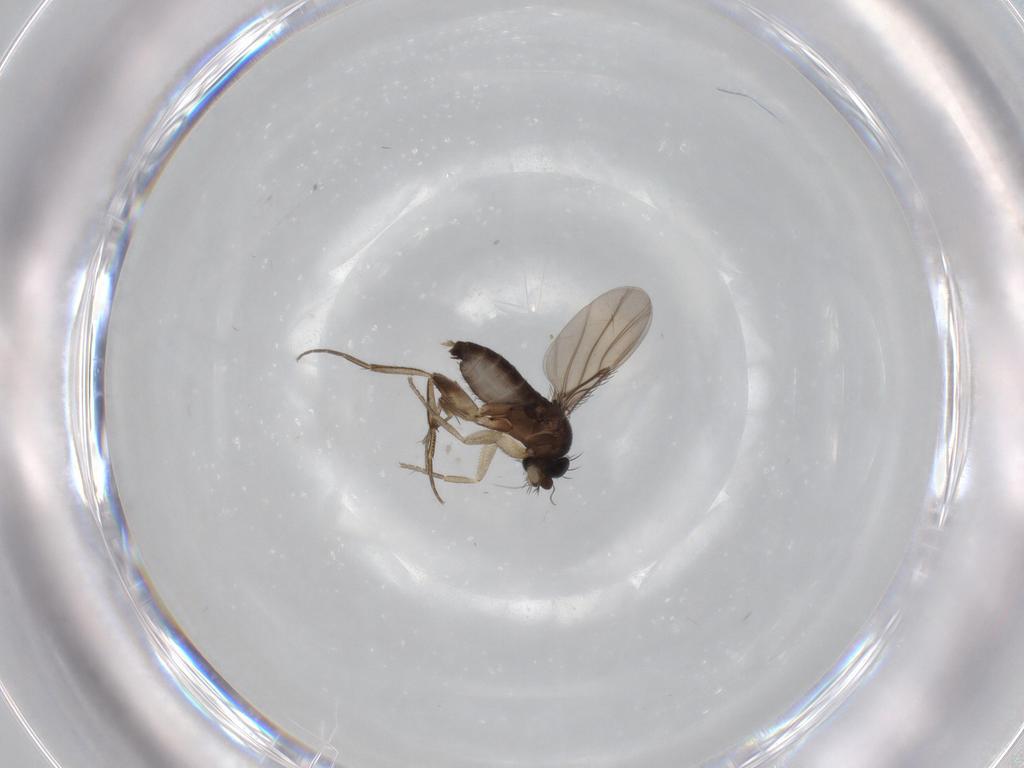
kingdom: Animalia
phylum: Arthropoda
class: Insecta
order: Diptera
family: Phoridae
